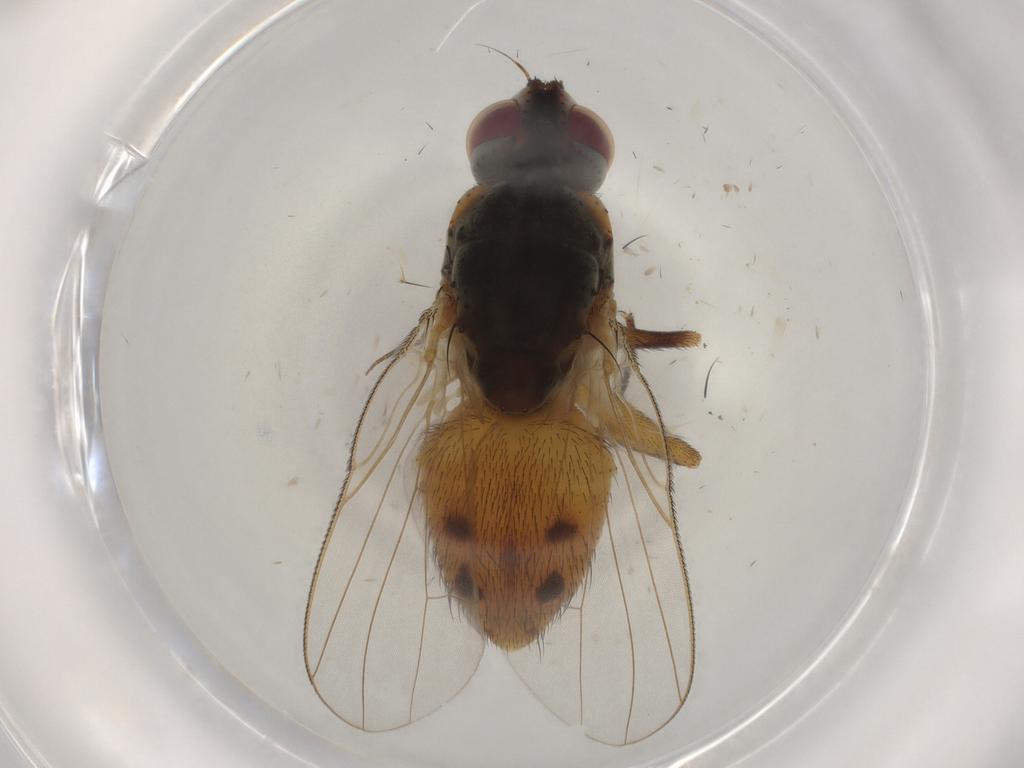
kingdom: Animalia
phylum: Arthropoda
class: Insecta
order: Diptera
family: Muscidae
